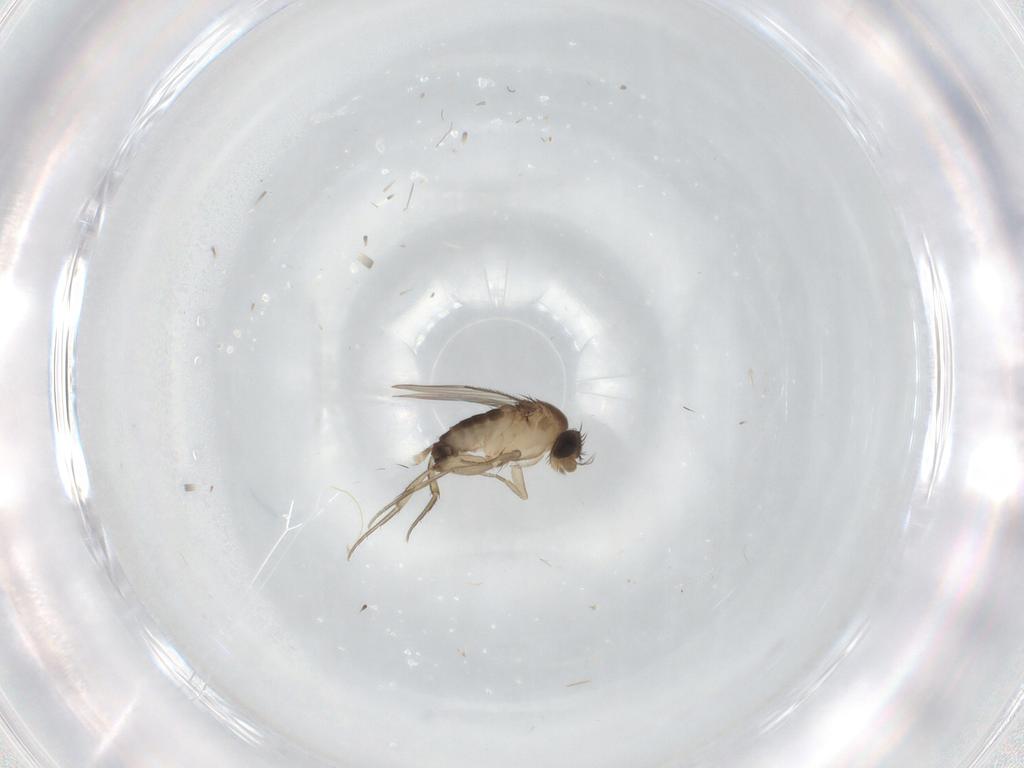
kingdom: Animalia
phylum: Arthropoda
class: Insecta
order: Diptera
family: Phoridae
